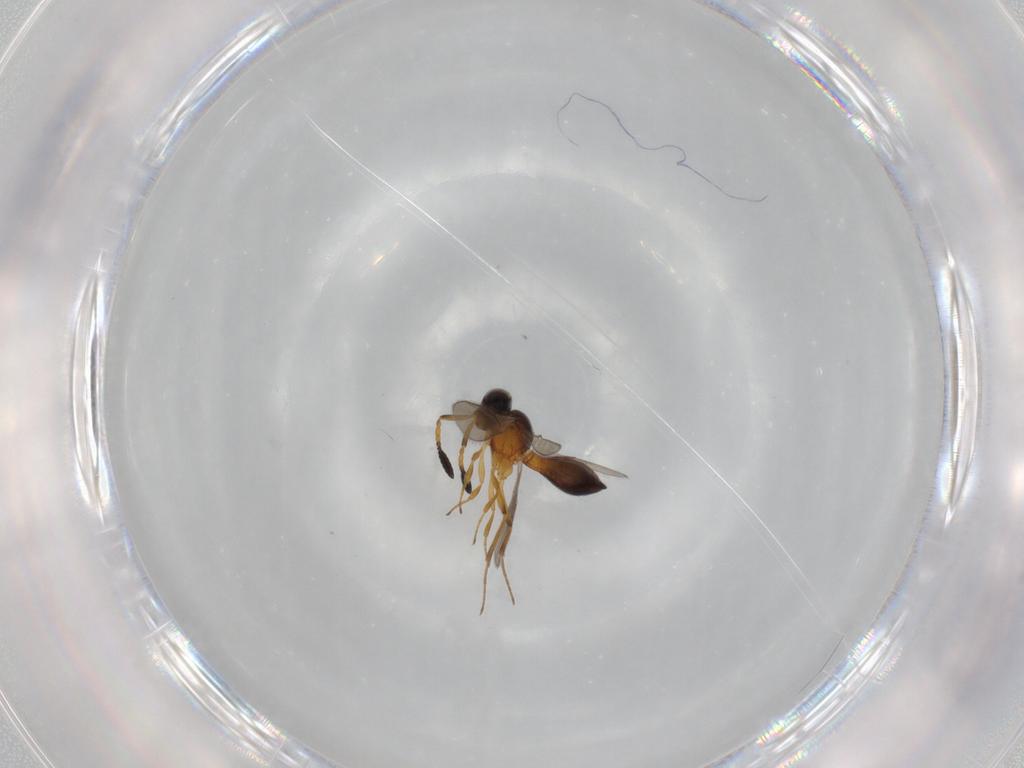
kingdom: Animalia
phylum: Arthropoda
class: Insecta
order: Hymenoptera
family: Scelionidae
